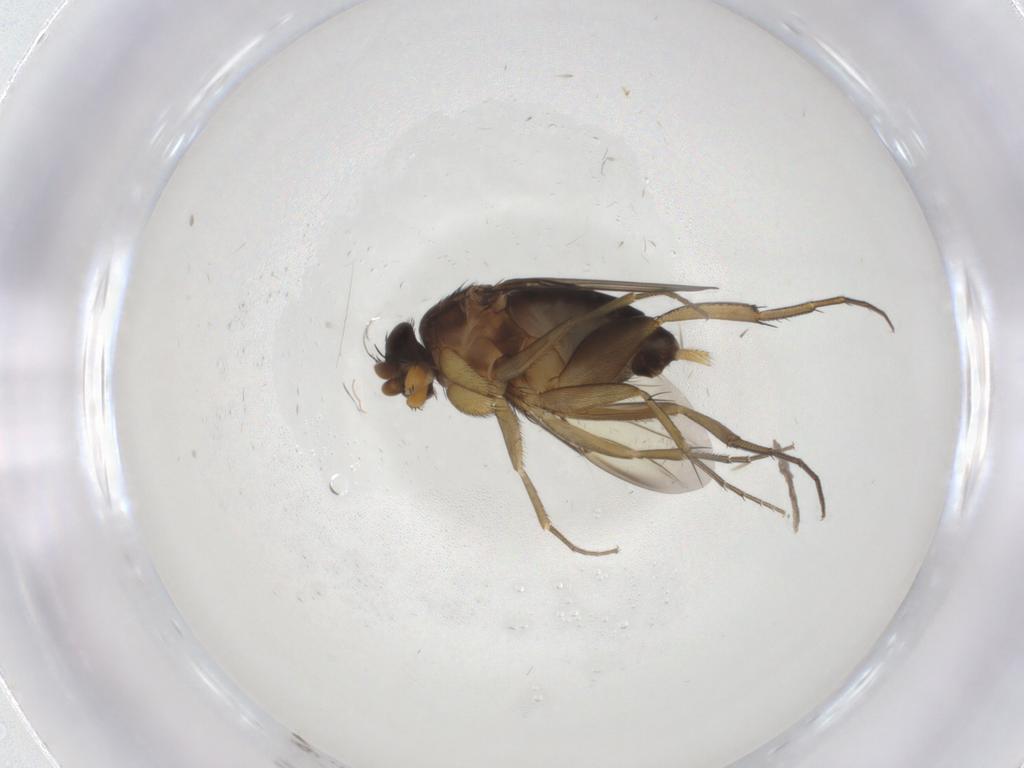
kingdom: Animalia
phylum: Arthropoda
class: Insecta
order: Diptera
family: Phoridae
